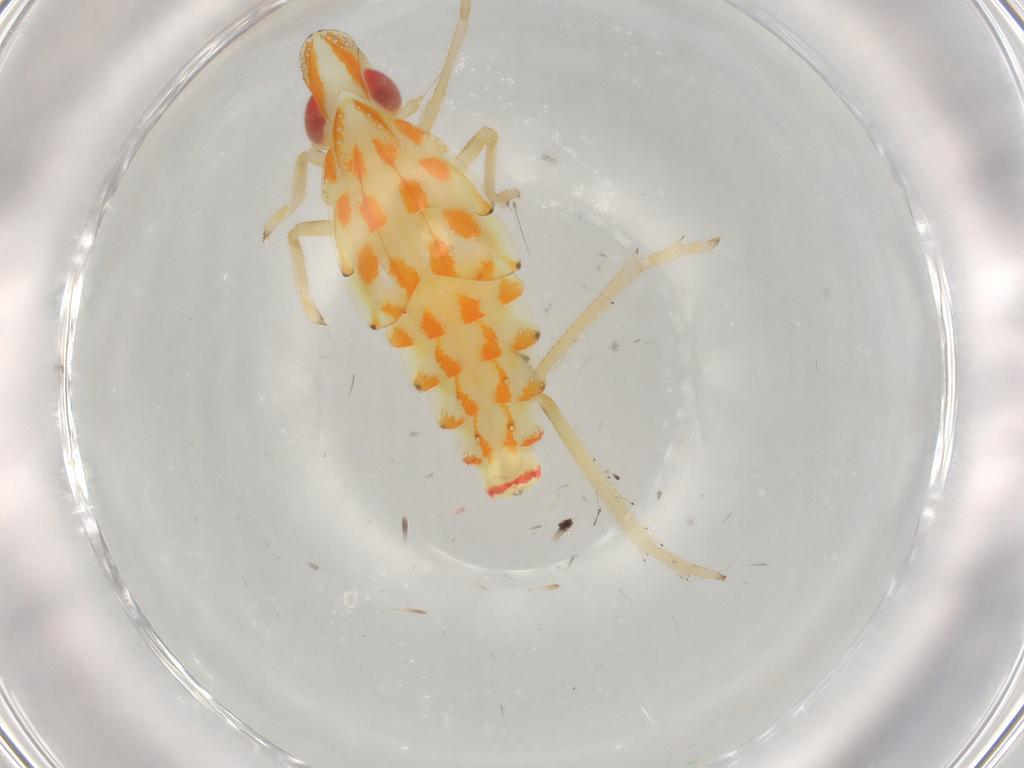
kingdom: Animalia
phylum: Arthropoda
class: Insecta
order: Hemiptera
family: Tropiduchidae
